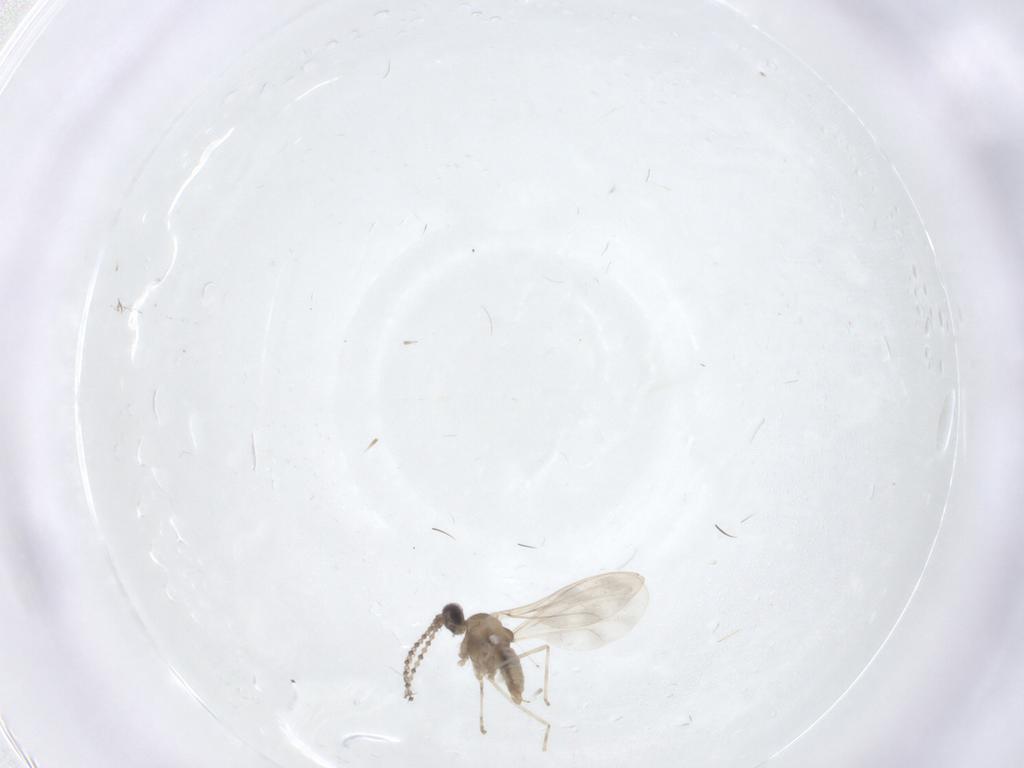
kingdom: Animalia
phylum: Arthropoda
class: Insecta
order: Diptera
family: Cecidomyiidae
